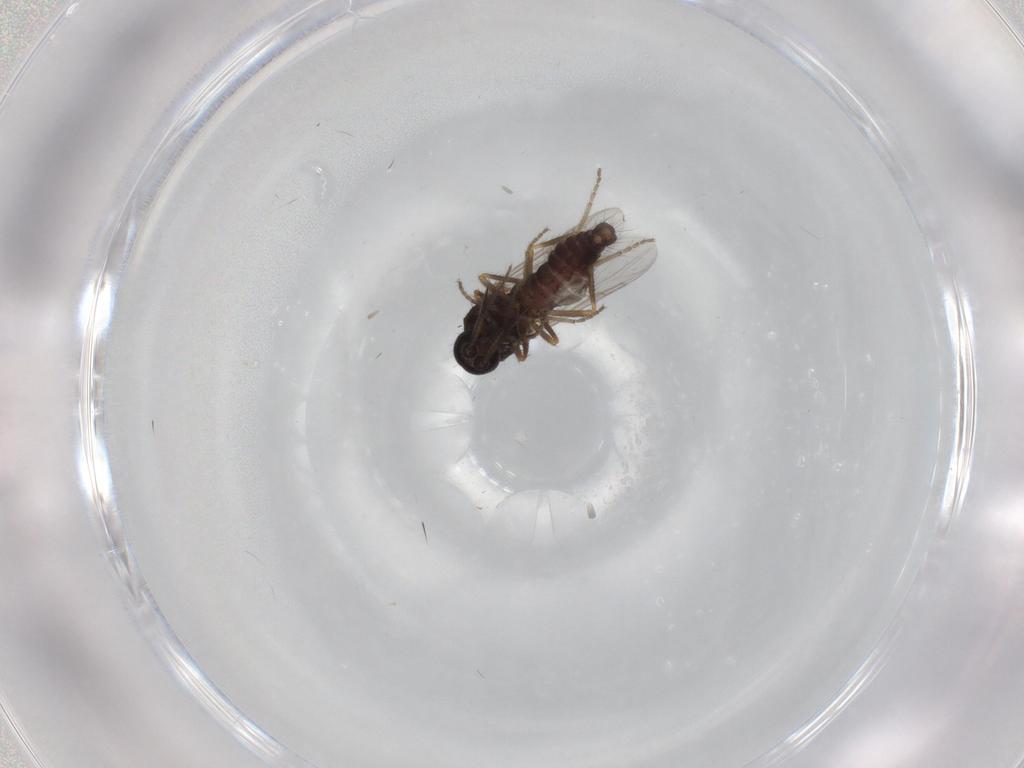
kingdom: Animalia
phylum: Arthropoda
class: Insecta
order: Diptera
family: Ceratopogonidae
